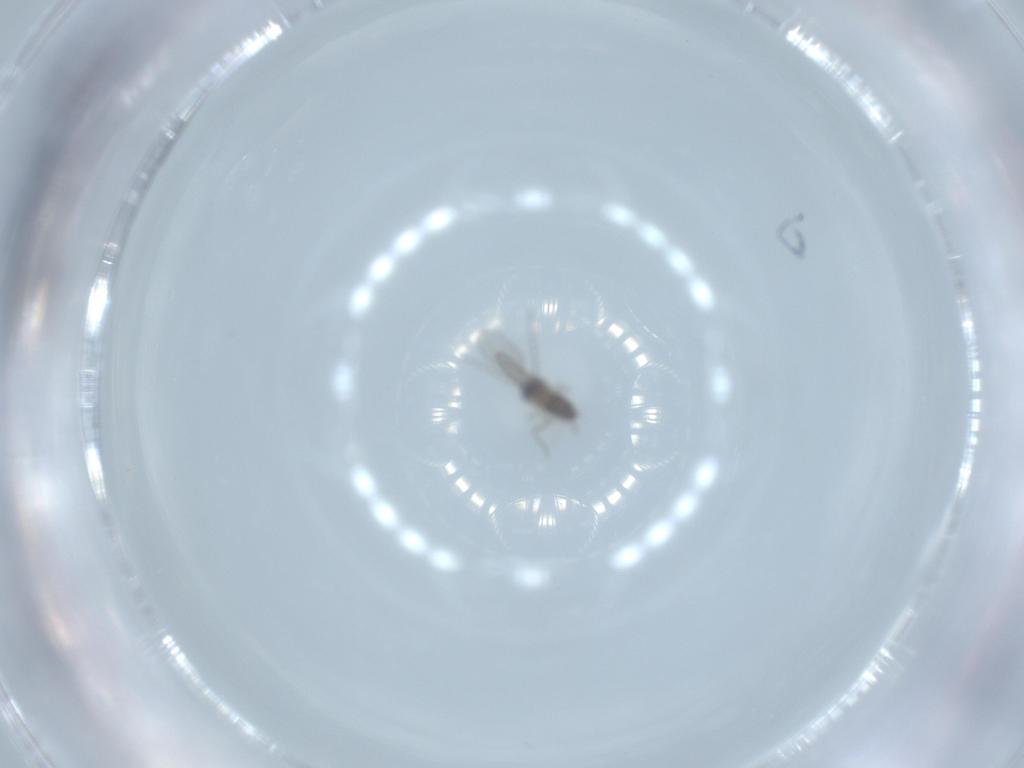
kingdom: Animalia
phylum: Arthropoda
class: Insecta
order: Diptera
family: Cecidomyiidae
